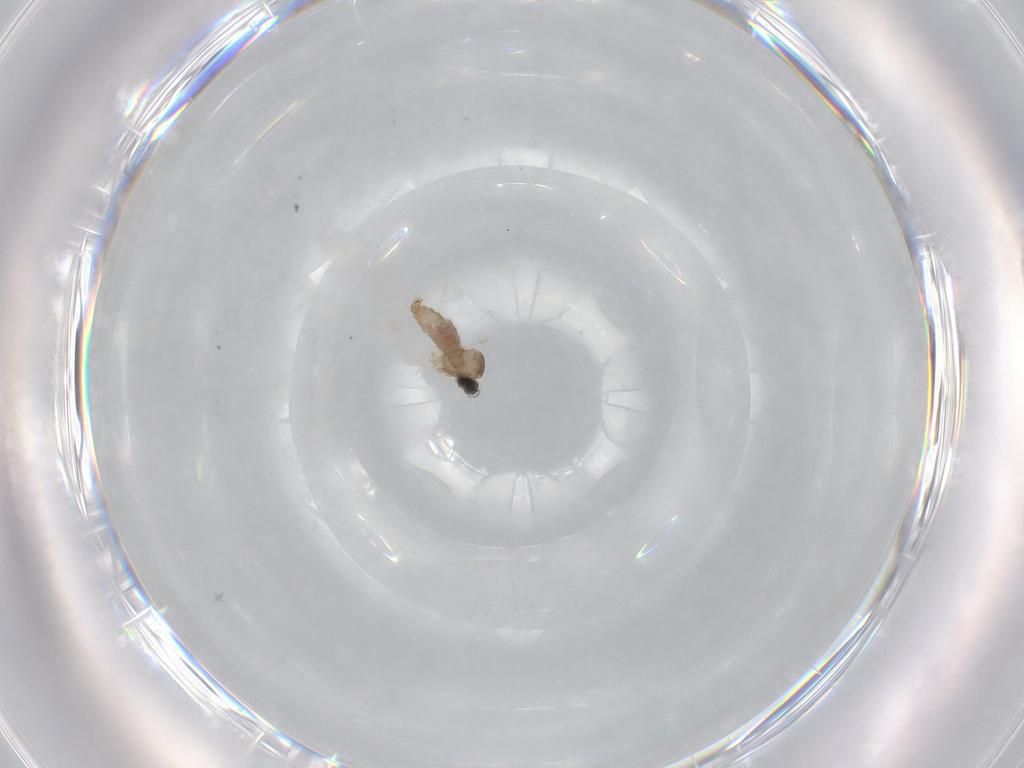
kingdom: Animalia
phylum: Arthropoda
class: Insecta
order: Diptera
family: Cecidomyiidae
